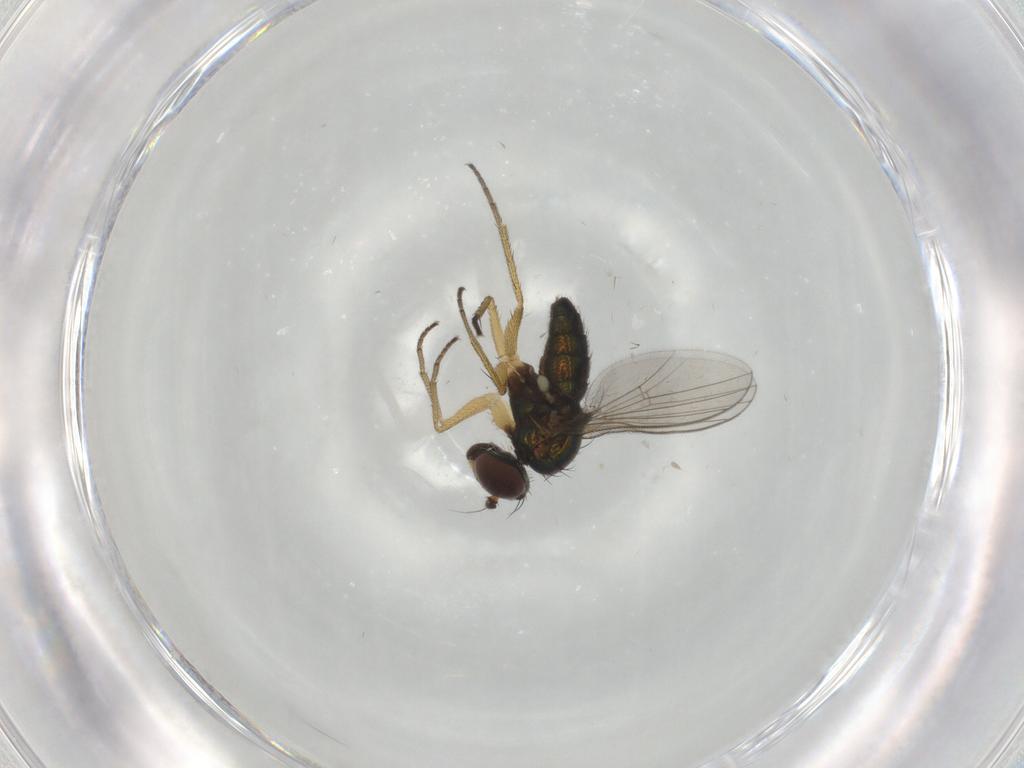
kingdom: Animalia
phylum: Arthropoda
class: Insecta
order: Diptera
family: Dolichopodidae
